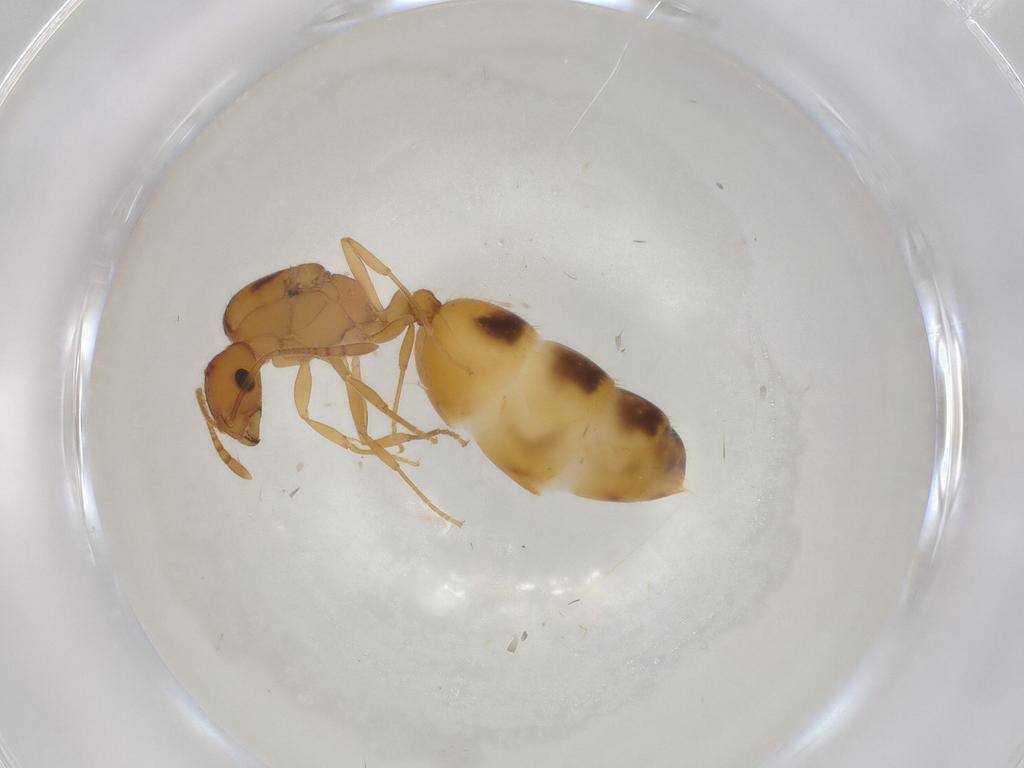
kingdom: Animalia
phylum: Arthropoda
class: Insecta
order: Hymenoptera
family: Formicidae
